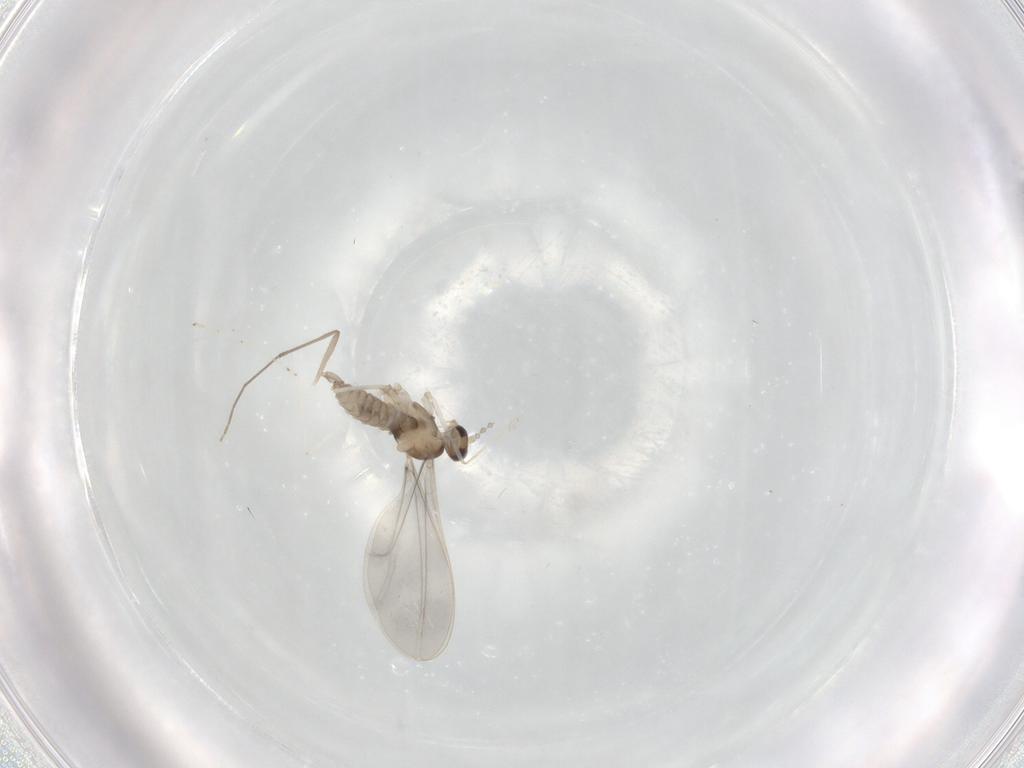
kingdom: Animalia
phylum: Arthropoda
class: Insecta
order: Diptera
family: Cecidomyiidae
